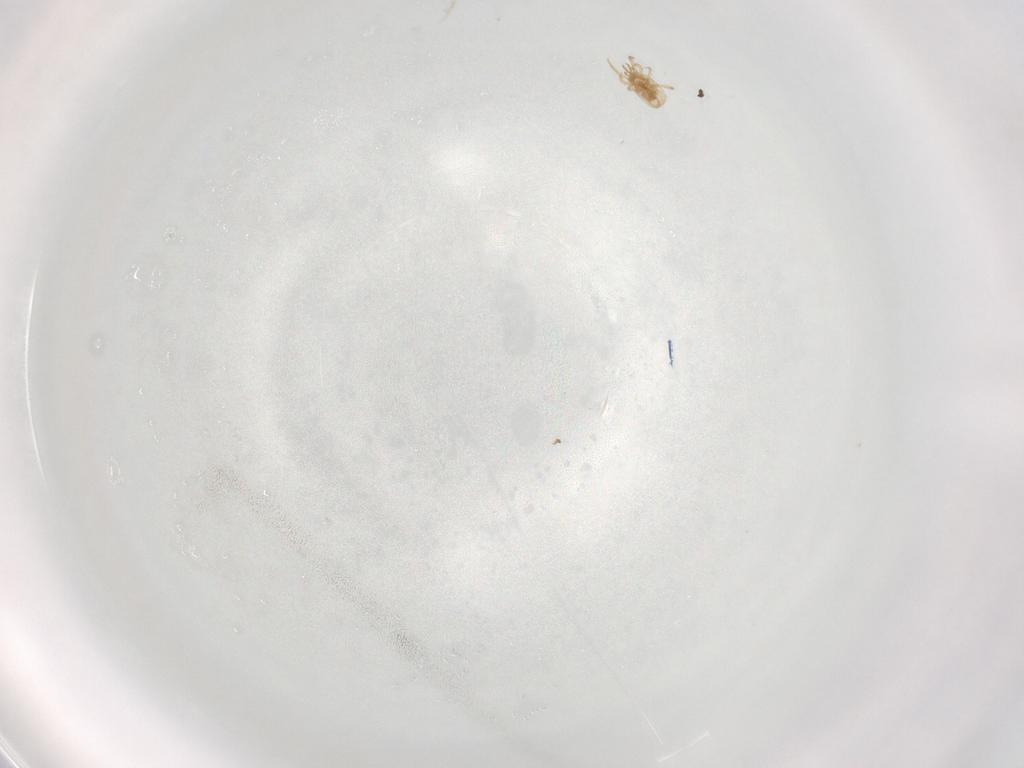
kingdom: Animalia
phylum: Arthropoda
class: Arachnida
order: Mesostigmata
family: Phytoseiidae
